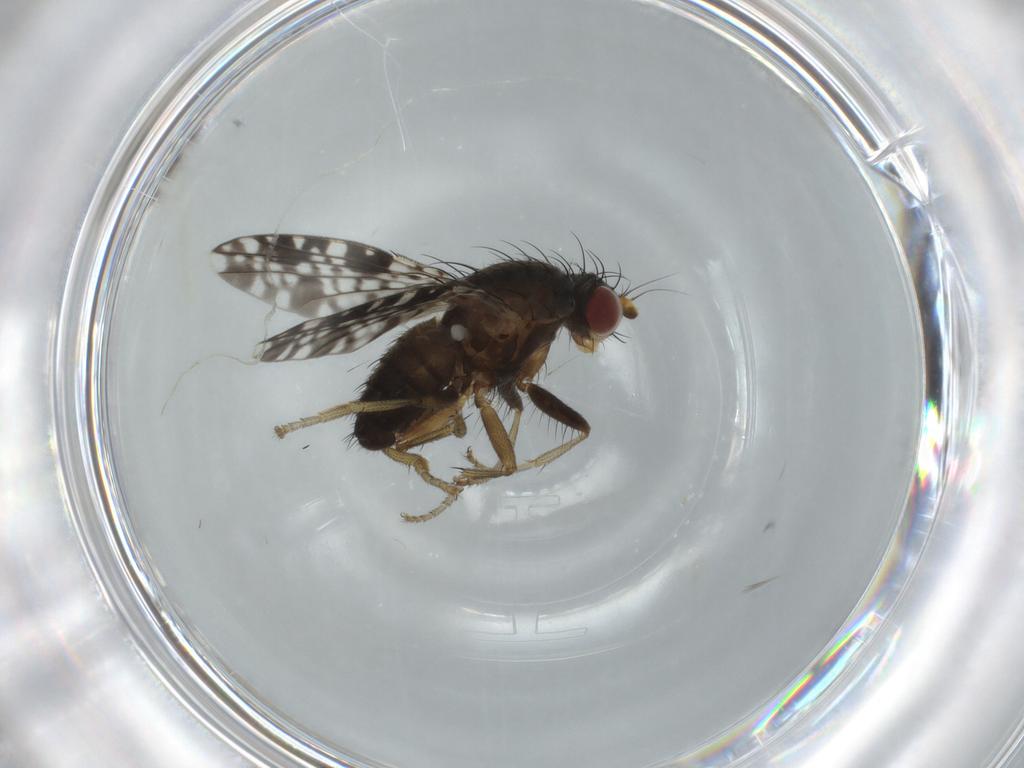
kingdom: Animalia
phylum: Arthropoda
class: Insecta
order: Diptera
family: Tephritidae
